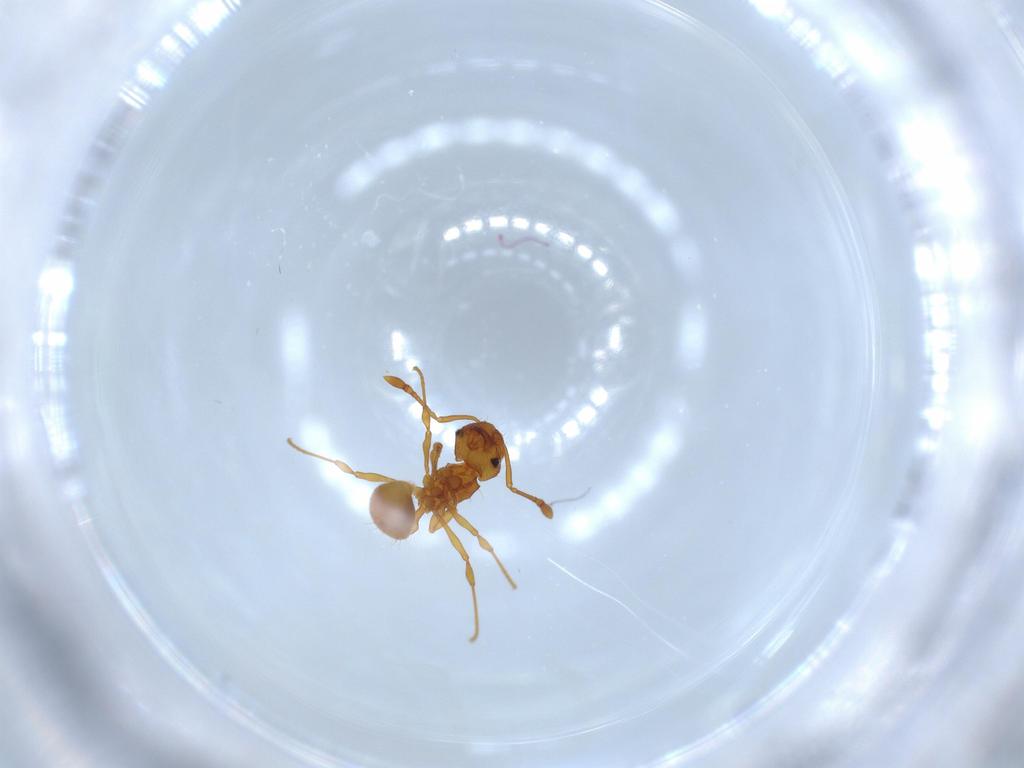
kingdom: Animalia
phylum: Arthropoda
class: Insecta
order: Hymenoptera
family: Formicidae
